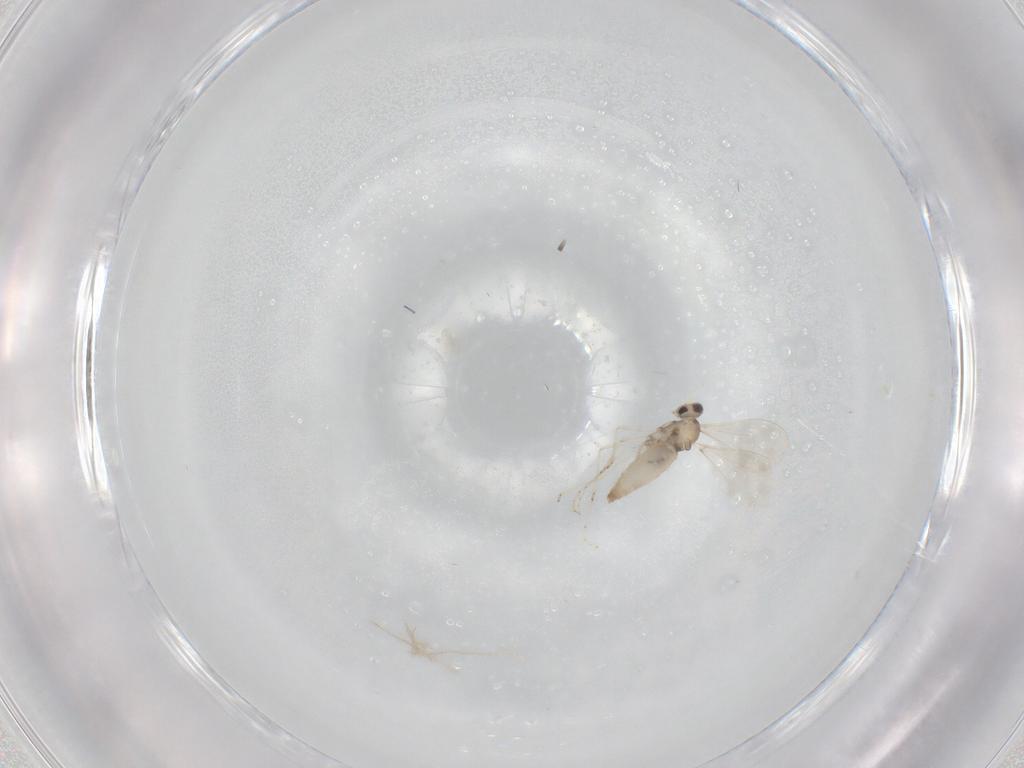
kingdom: Animalia
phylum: Arthropoda
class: Insecta
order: Diptera
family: Cecidomyiidae
